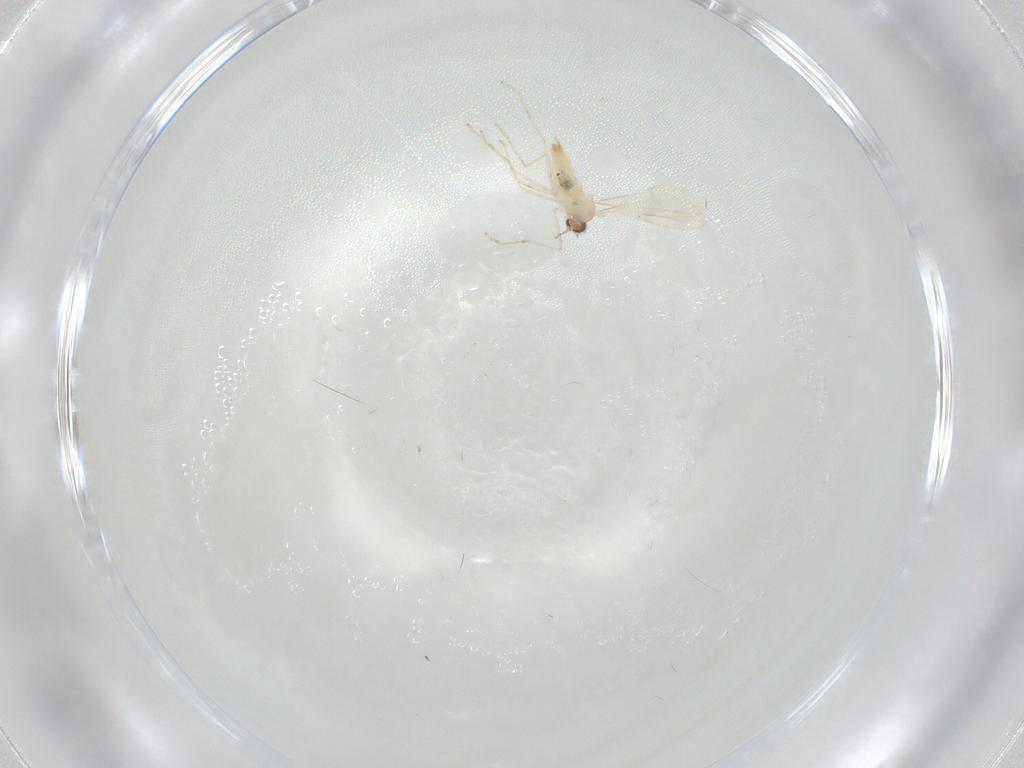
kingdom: Animalia
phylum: Arthropoda
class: Insecta
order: Diptera
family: Cecidomyiidae
